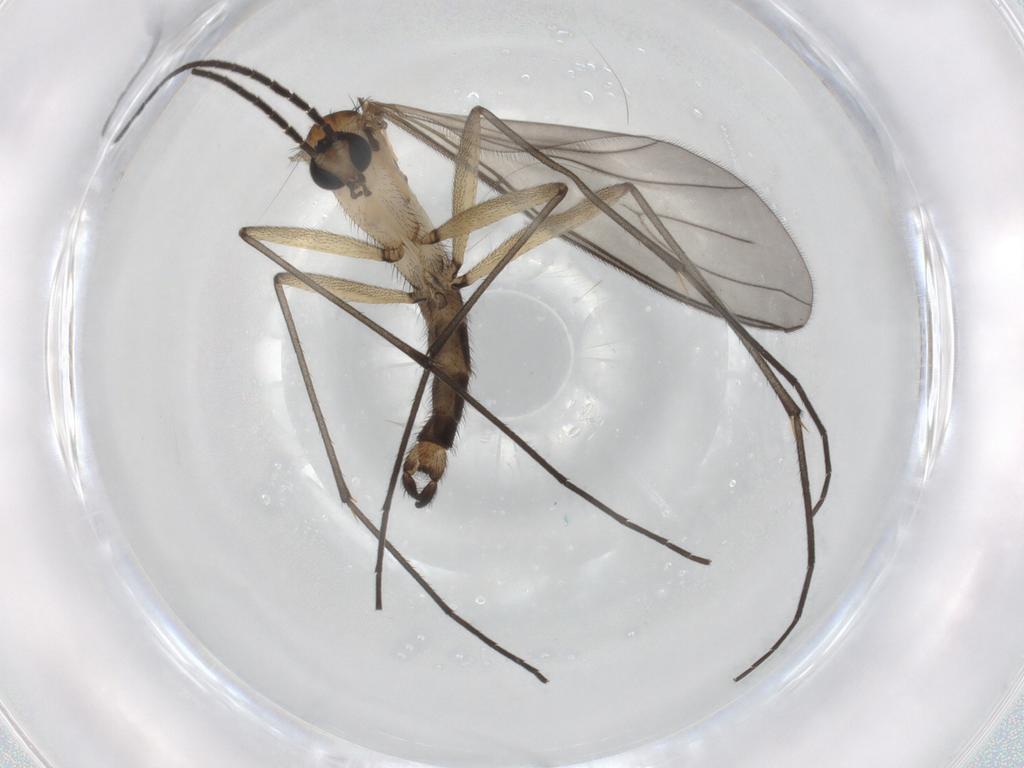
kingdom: Animalia
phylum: Arthropoda
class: Insecta
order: Diptera
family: Sciaridae
